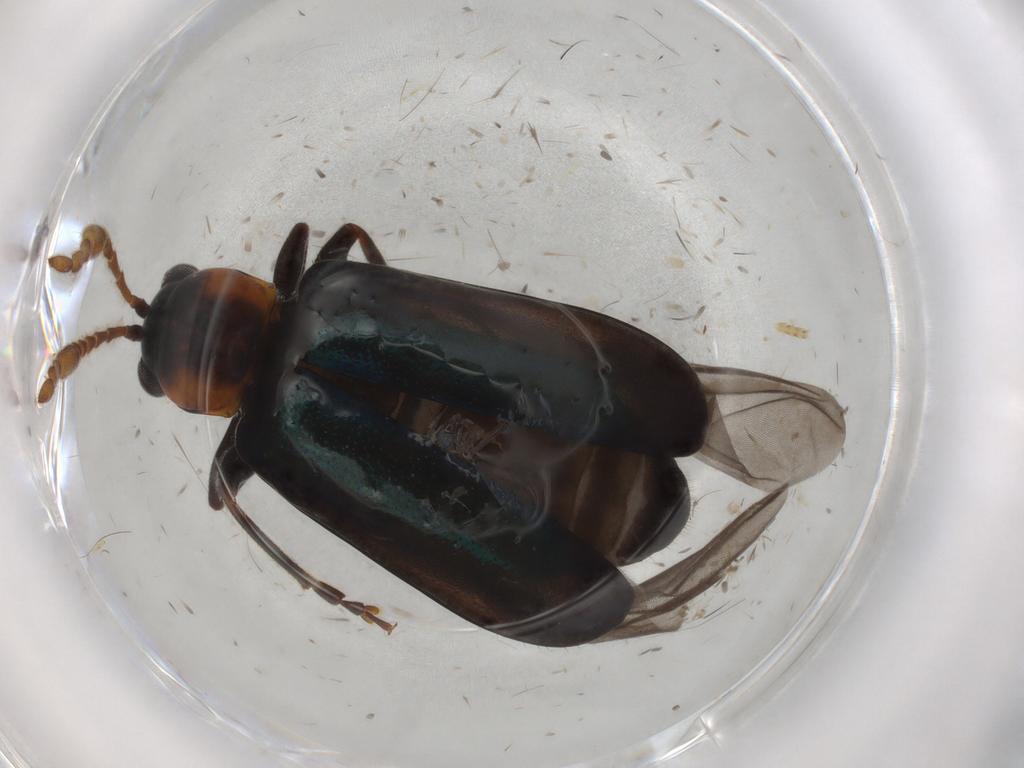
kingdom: Animalia
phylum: Arthropoda
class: Insecta
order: Coleoptera
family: Chrysomelidae
